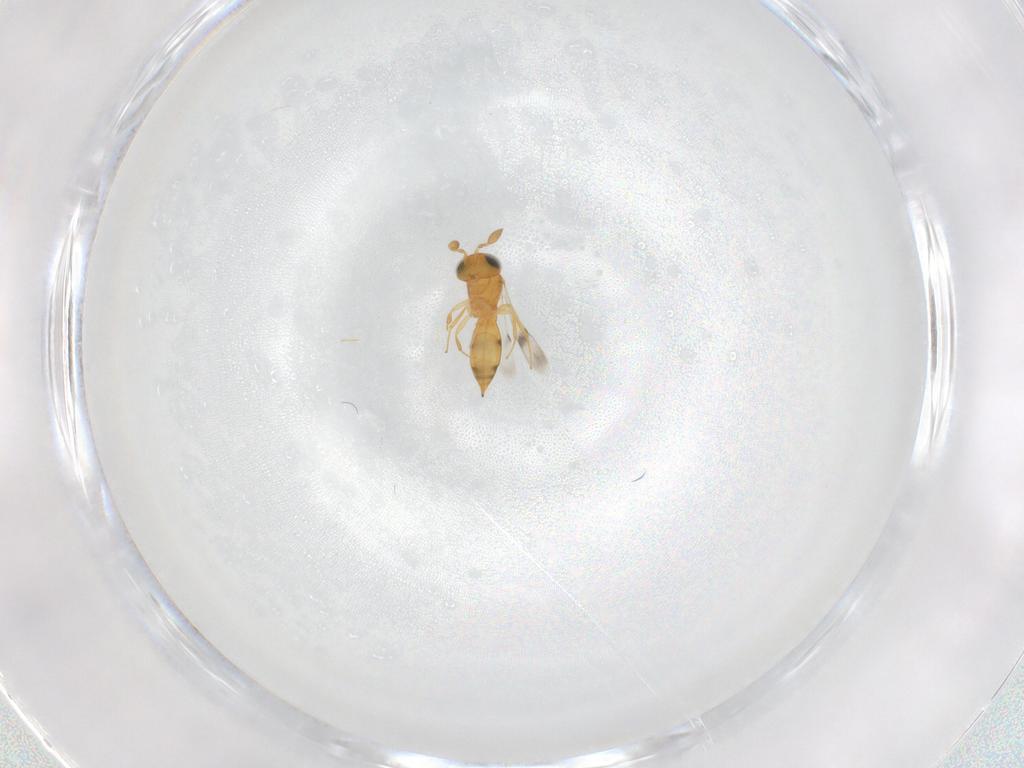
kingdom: Animalia
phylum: Arthropoda
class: Insecta
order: Hymenoptera
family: Scelionidae
